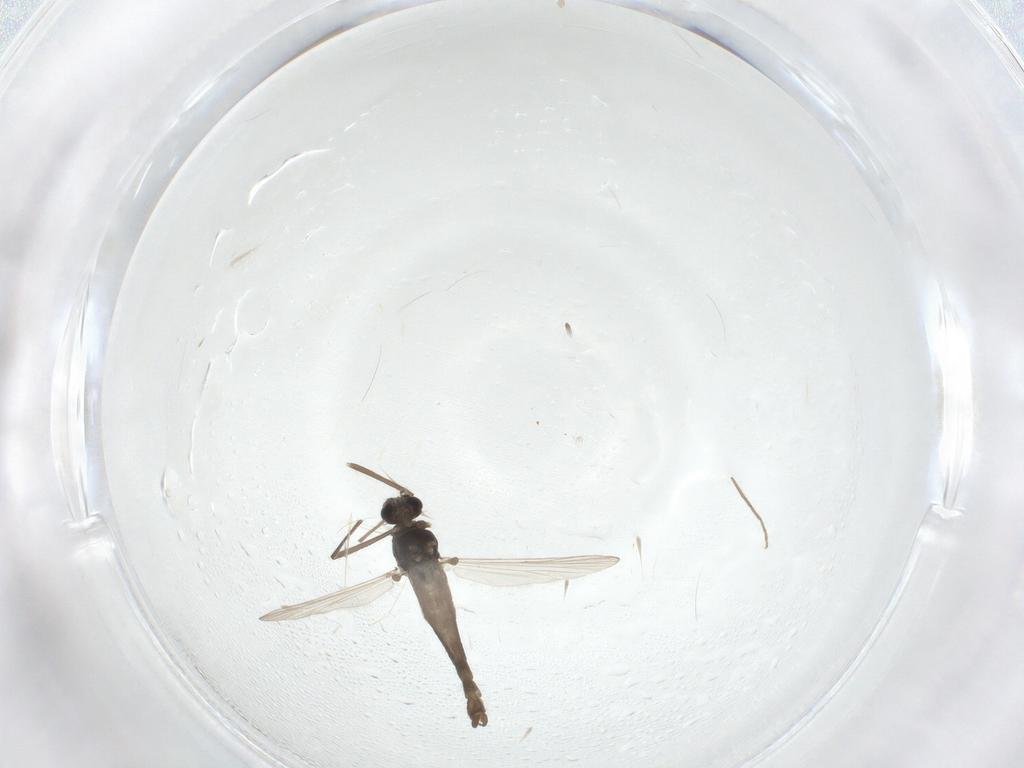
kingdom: Animalia
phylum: Arthropoda
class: Insecta
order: Diptera
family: Chironomidae
